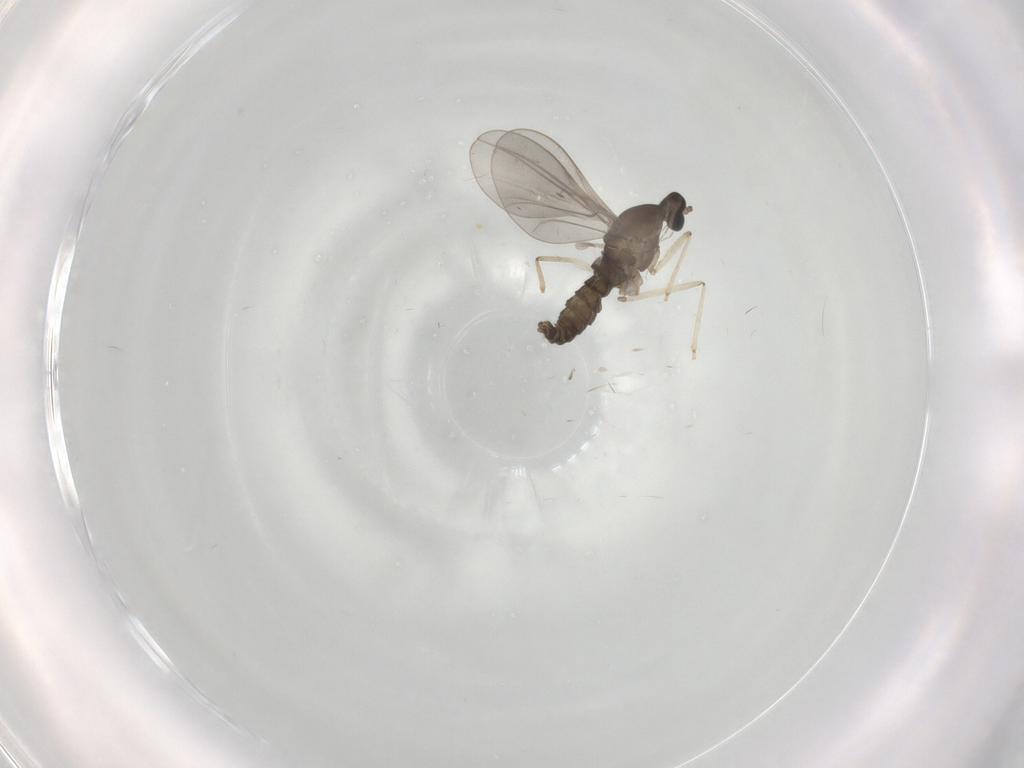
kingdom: Animalia
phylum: Arthropoda
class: Insecta
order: Diptera
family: Cecidomyiidae
